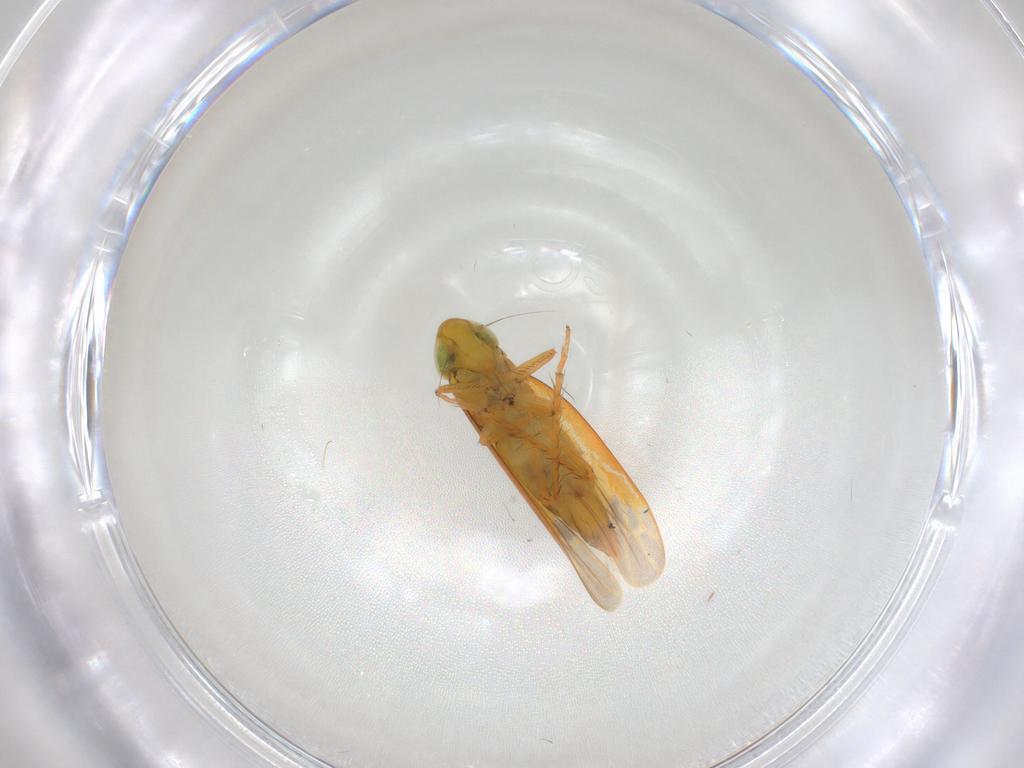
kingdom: Animalia
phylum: Arthropoda
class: Insecta
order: Hemiptera
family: Cicadellidae
